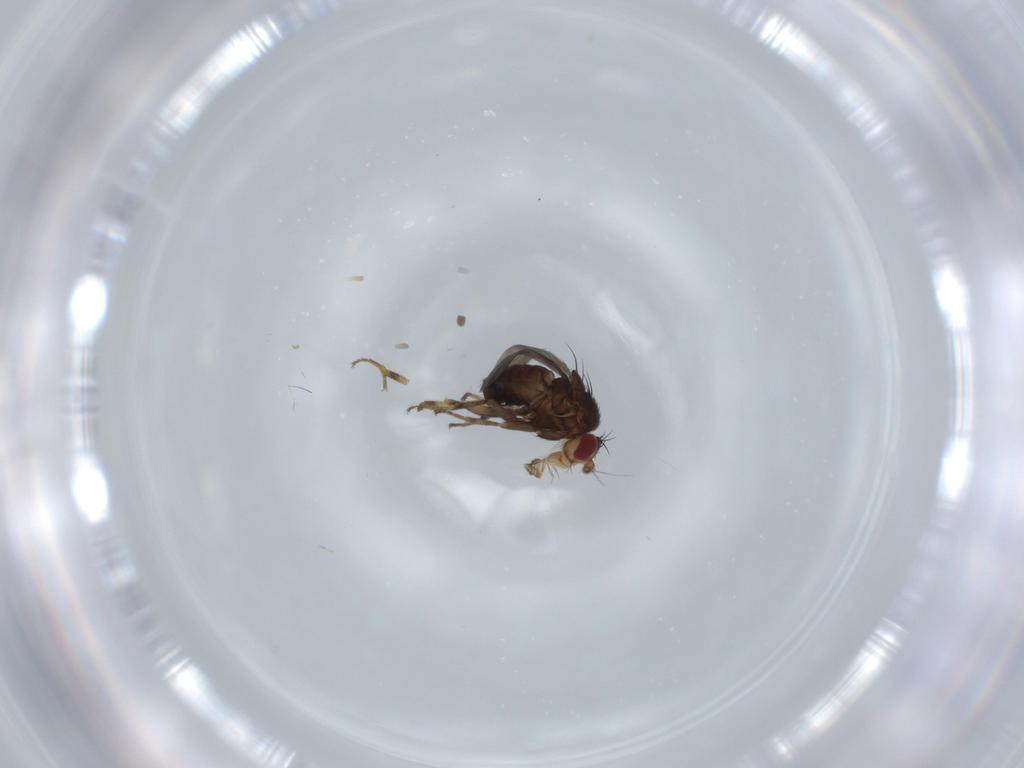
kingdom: Animalia
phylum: Arthropoda
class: Insecta
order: Diptera
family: Sphaeroceridae
